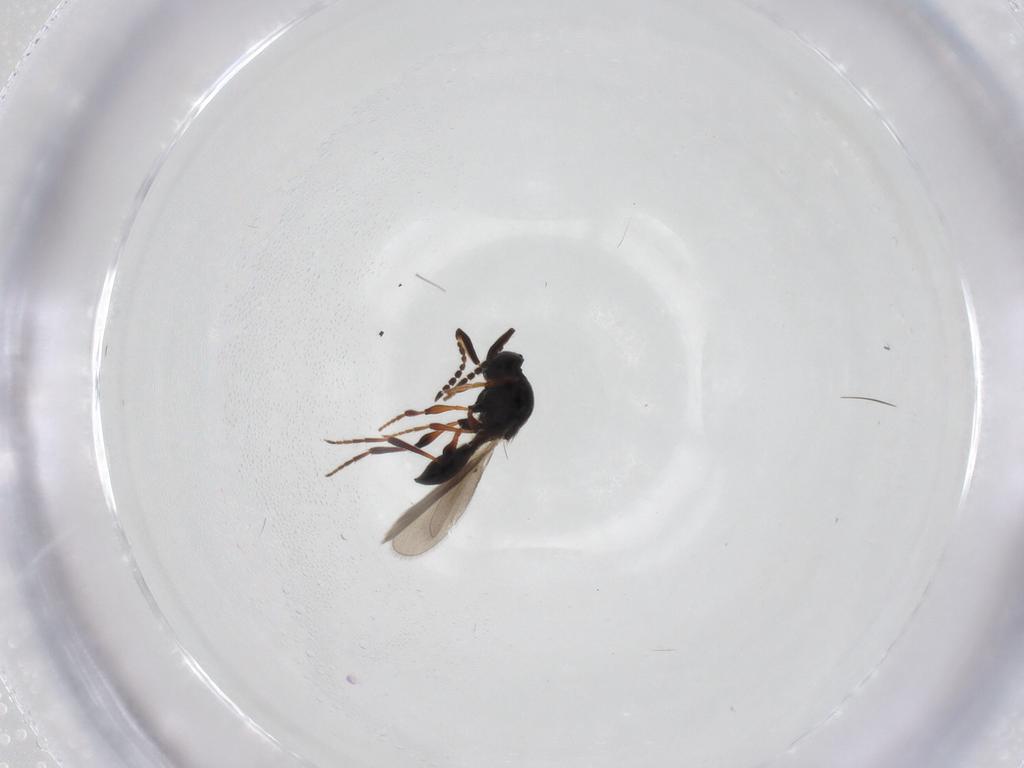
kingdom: Animalia
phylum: Arthropoda
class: Insecta
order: Hymenoptera
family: Platygastridae
